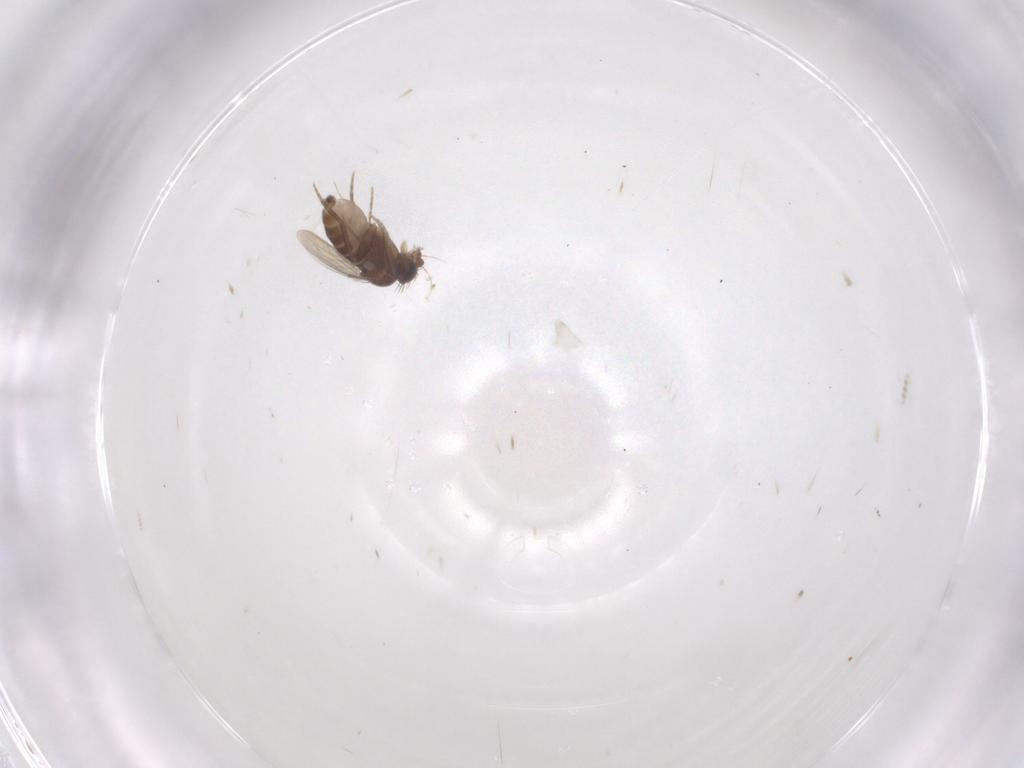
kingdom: Animalia
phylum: Arthropoda
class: Insecta
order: Diptera
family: Phoridae
